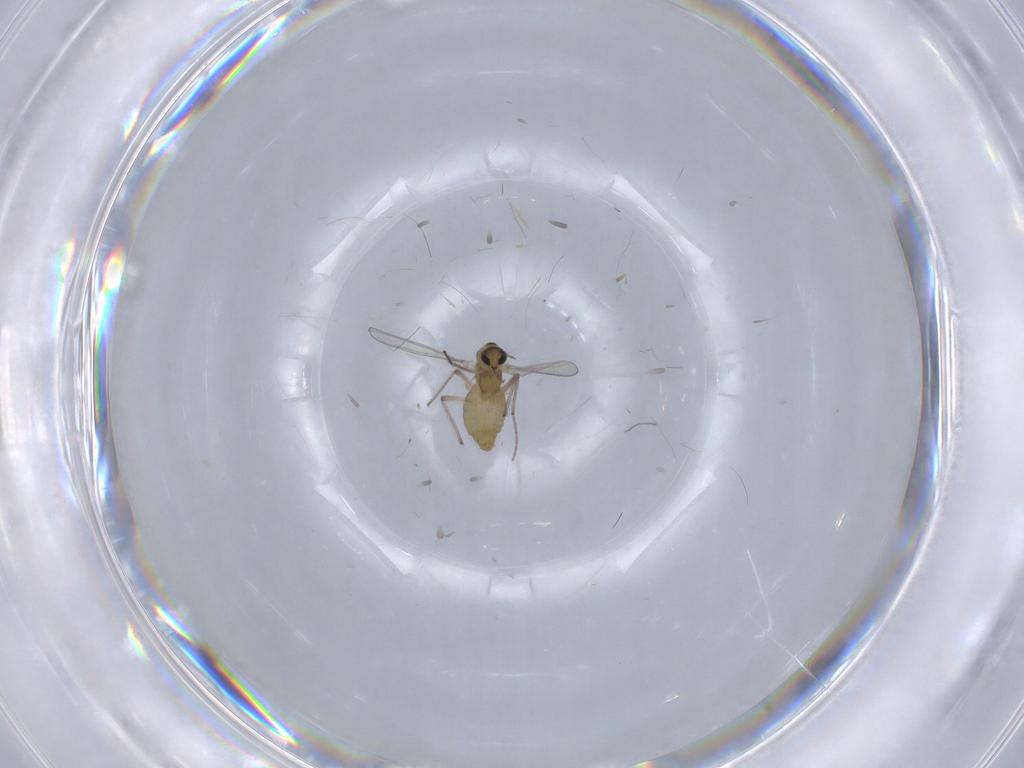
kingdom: Animalia
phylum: Arthropoda
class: Insecta
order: Diptera
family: Chironomidae
